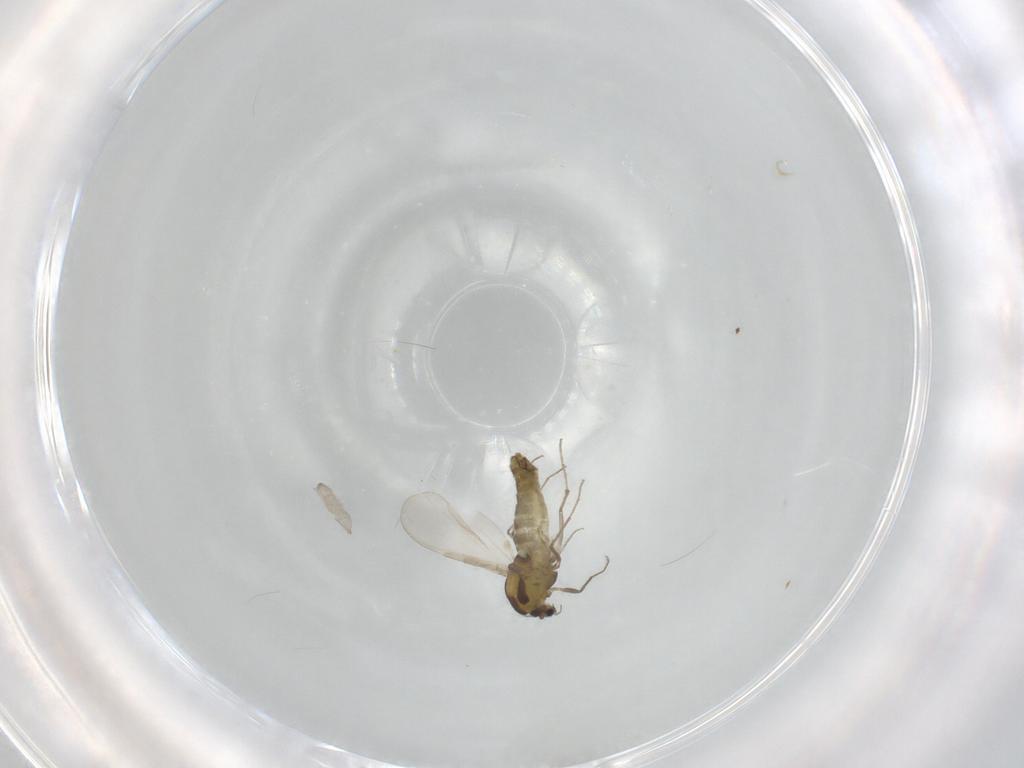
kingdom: Animalia
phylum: Arthropoda
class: Insecta
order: Diptera
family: Chironomidae
